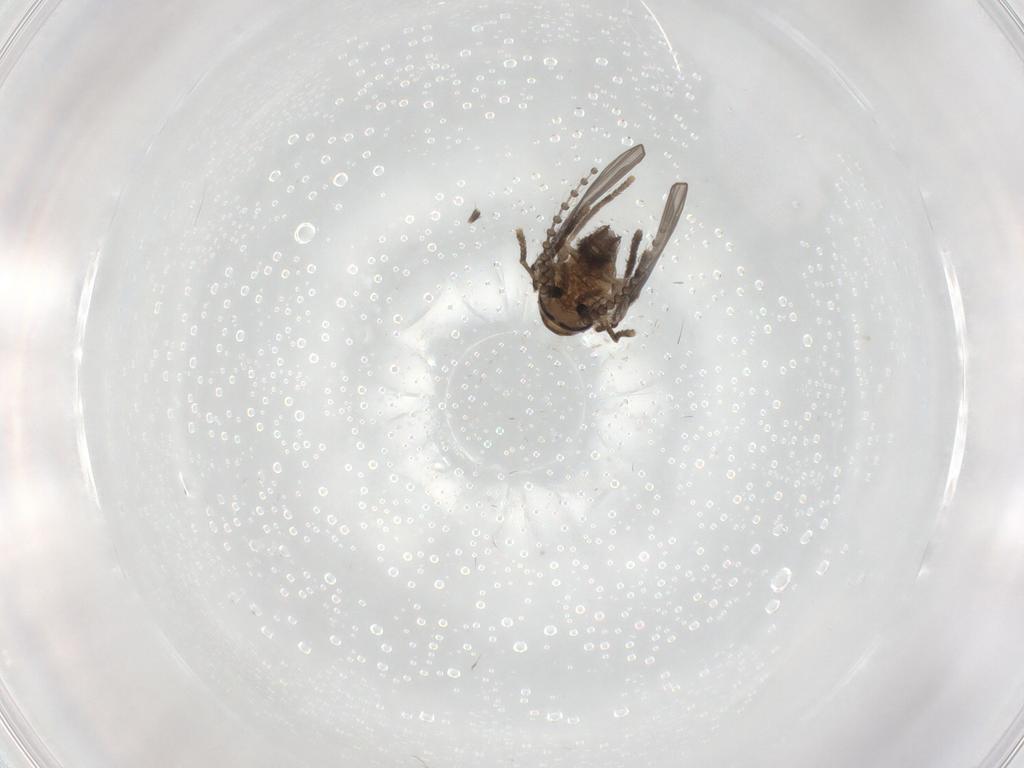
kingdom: Animalia
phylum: Arthropoda
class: Insecta
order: Diptera
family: Psychodidae
